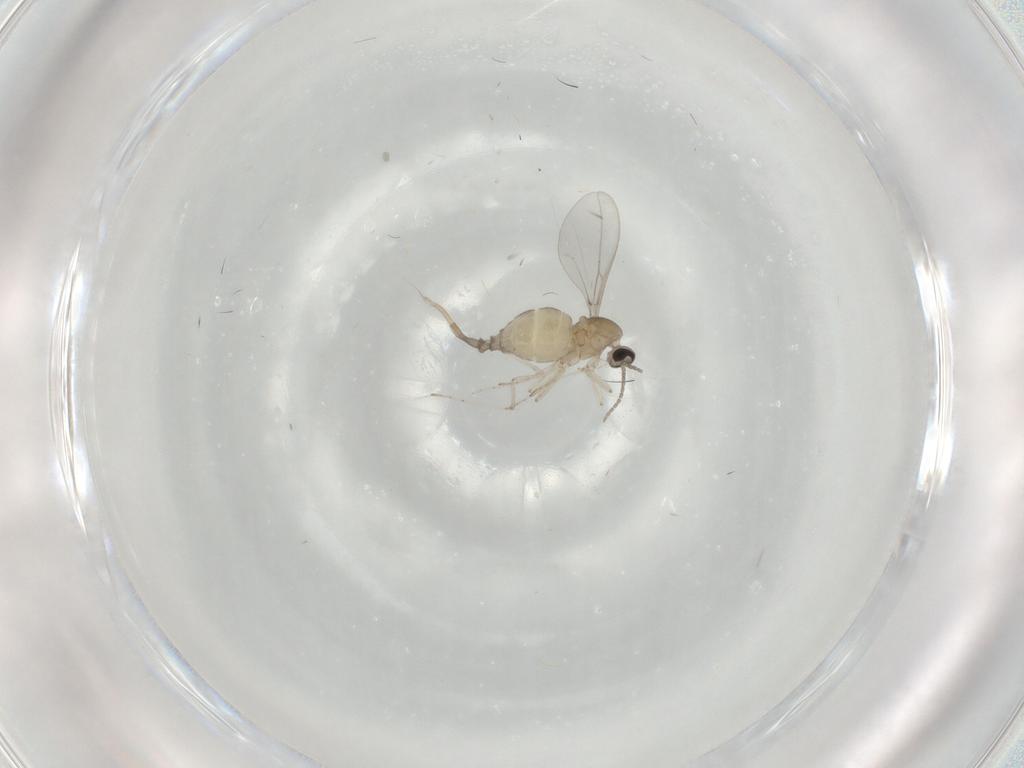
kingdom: Animalia
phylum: Arthropoda
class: Insecta
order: Diptera
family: Cecidomyiidae
